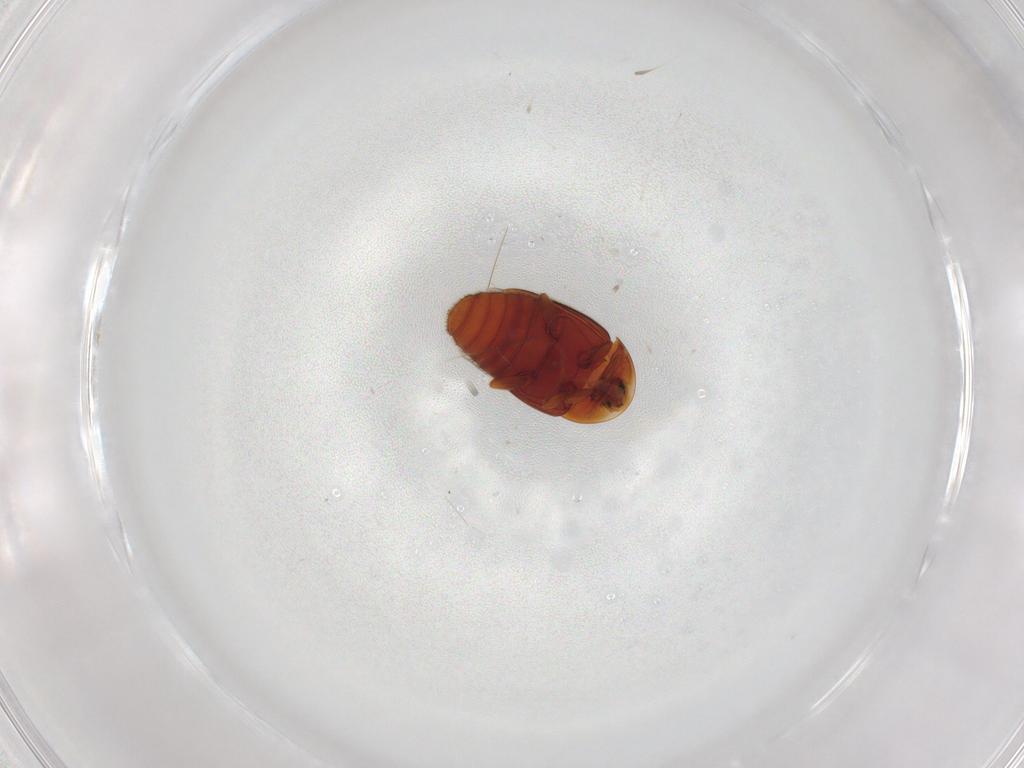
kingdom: Animalia
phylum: Arthropoda
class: Insecta
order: Coleoptera
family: Corylophidae
